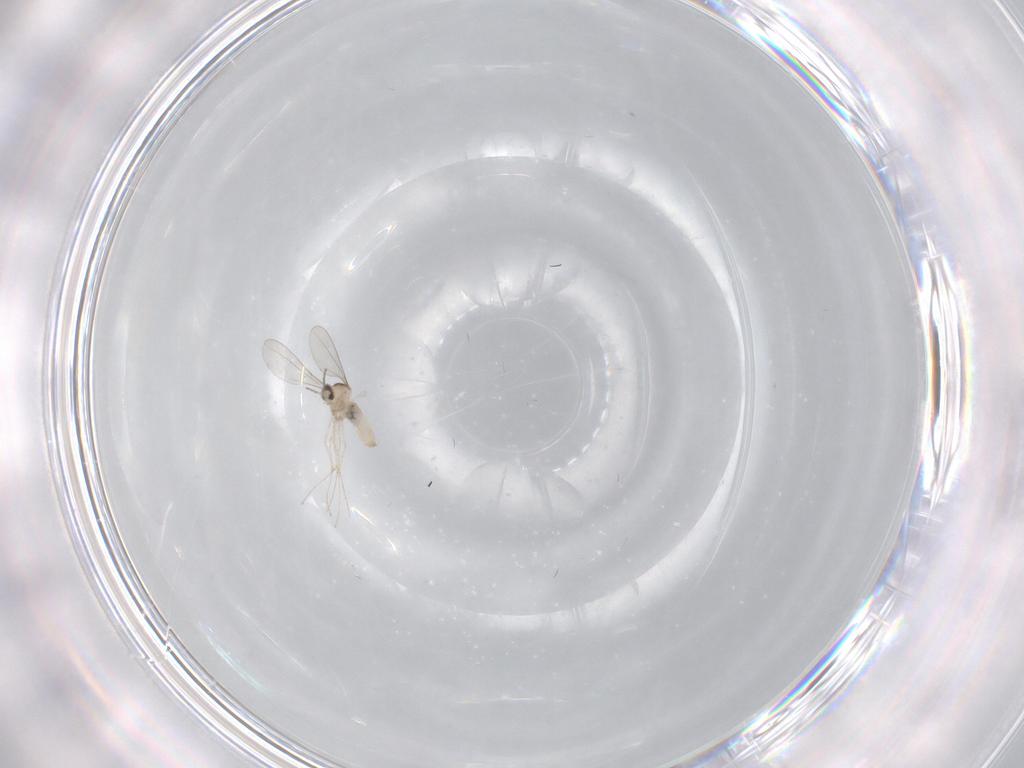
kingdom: Animalia
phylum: Arthropoda
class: Insecta
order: Diptera
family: Cecidomyiidae
